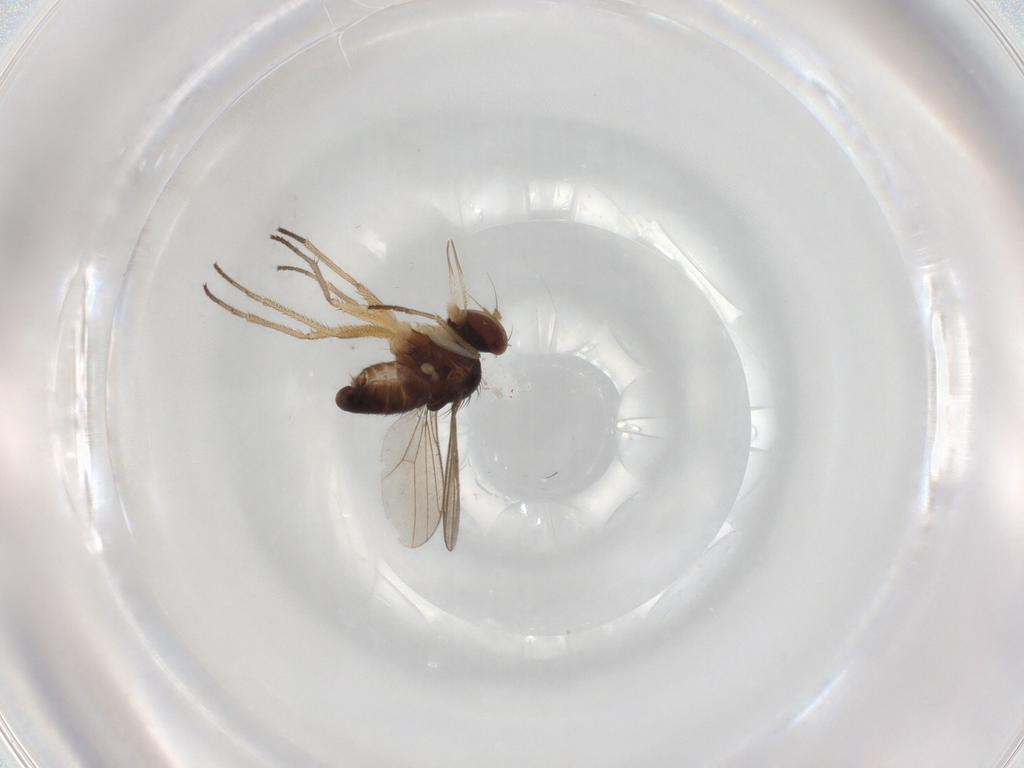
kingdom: Animalia
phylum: Arthropoda
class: Insecta
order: Diptera
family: Dolichopodidae
